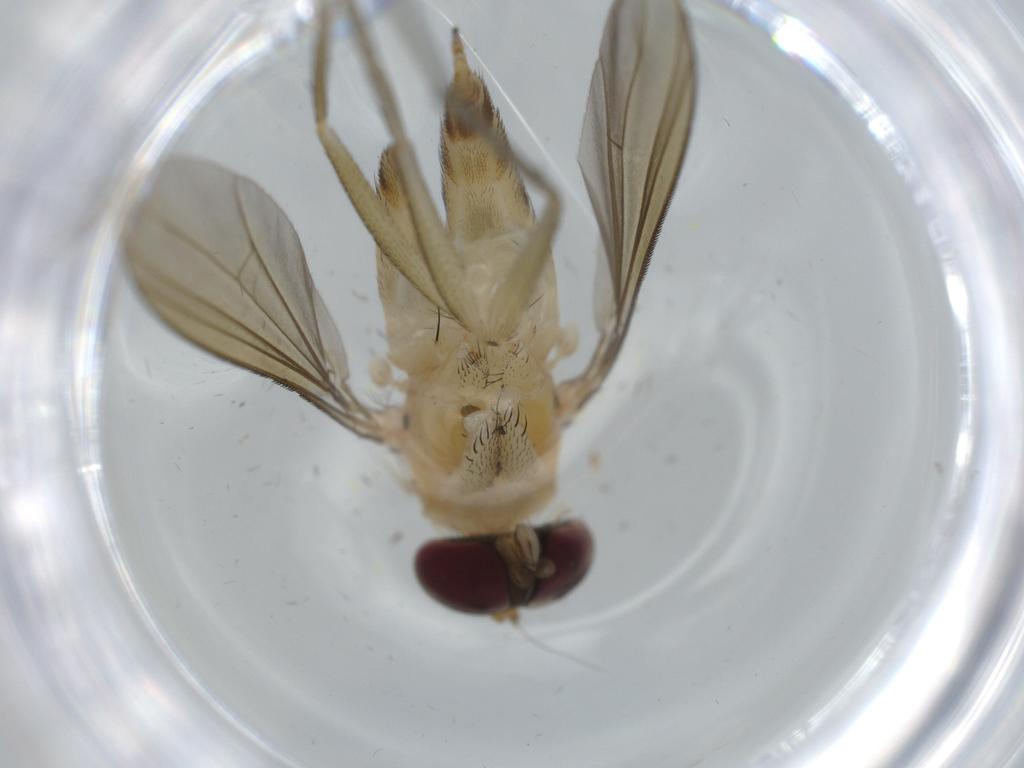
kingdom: Animalia
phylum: Arthropoda
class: Insecta
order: Diptera
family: Dolichopodidae
